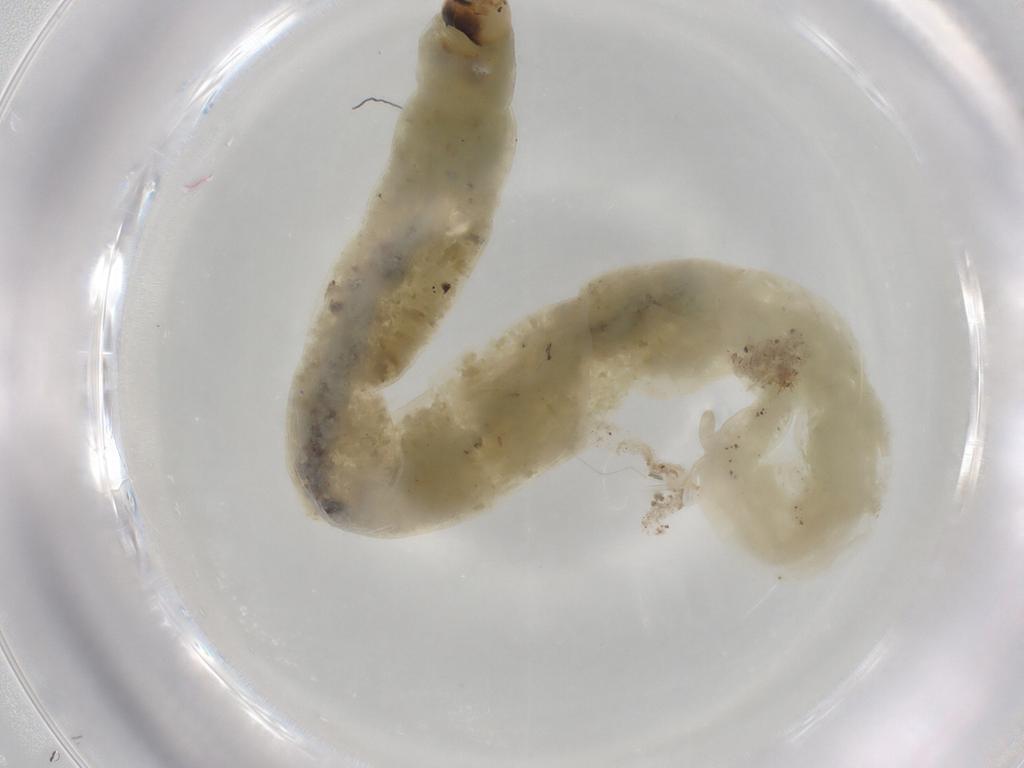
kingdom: Animalia
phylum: Arthropoda
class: Insecta
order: Diptera
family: Chironomidae
